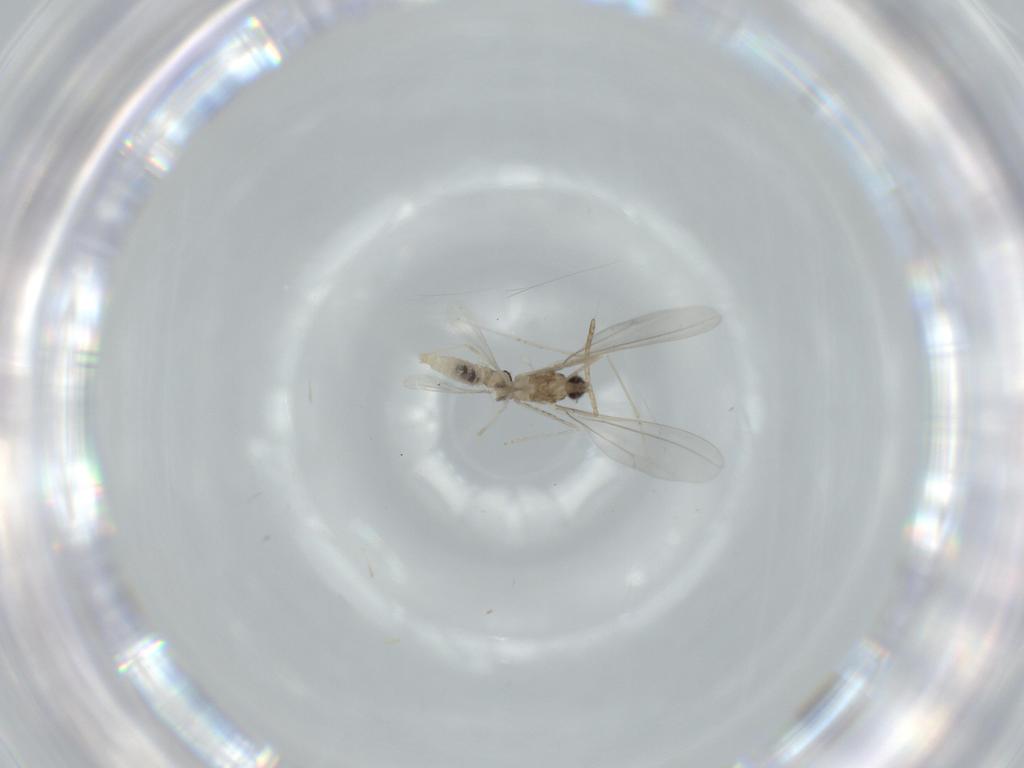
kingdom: Animalia
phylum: Arthropoda
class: Insecta
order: Diptera
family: Cecidomyiidae
